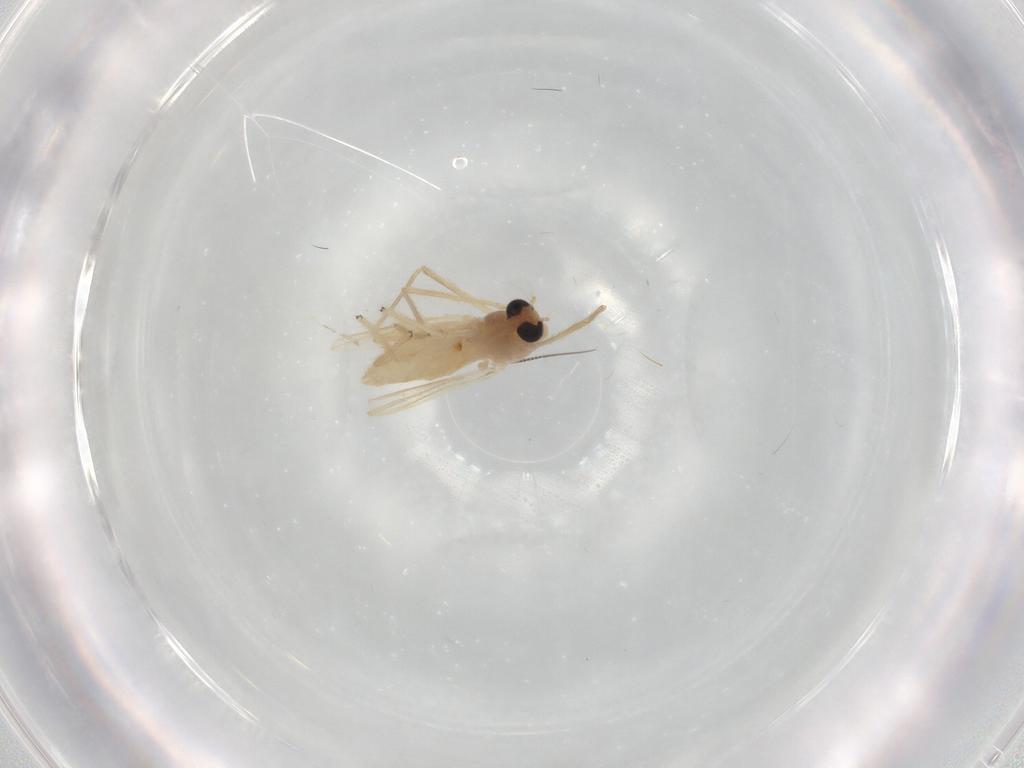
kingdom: Animalia
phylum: Arthropoda
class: Insecta
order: Diptera
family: Chironomidae
